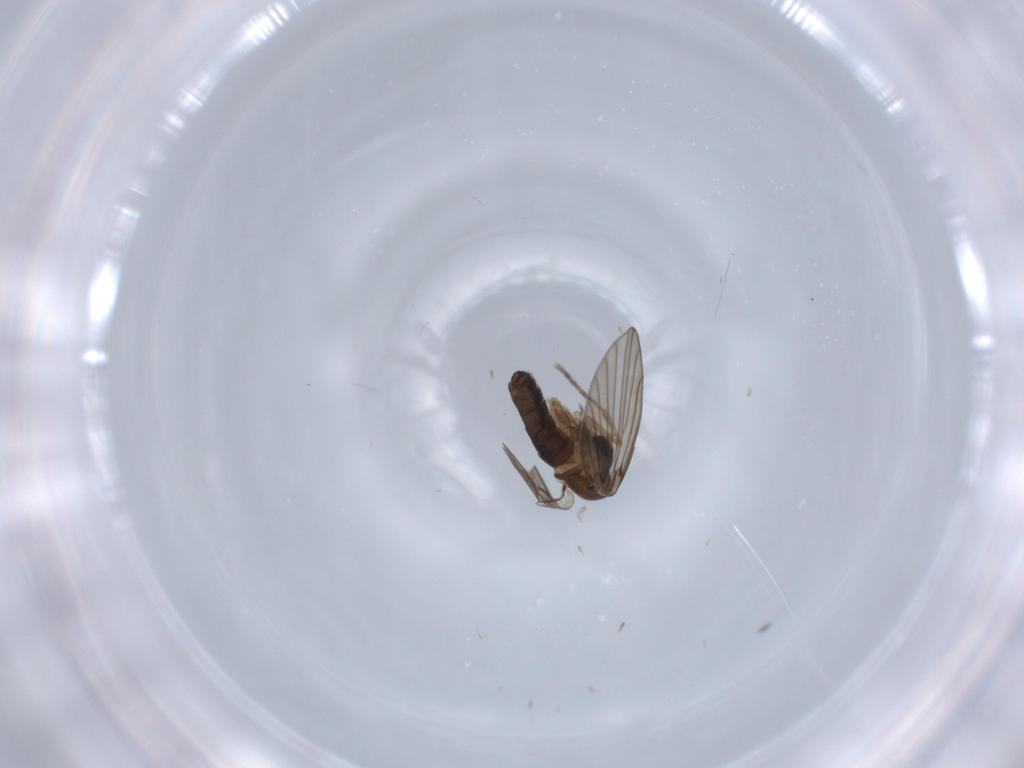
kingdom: Animalia
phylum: Arthropoda
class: Insecta
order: Diptera
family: Psychodidae
